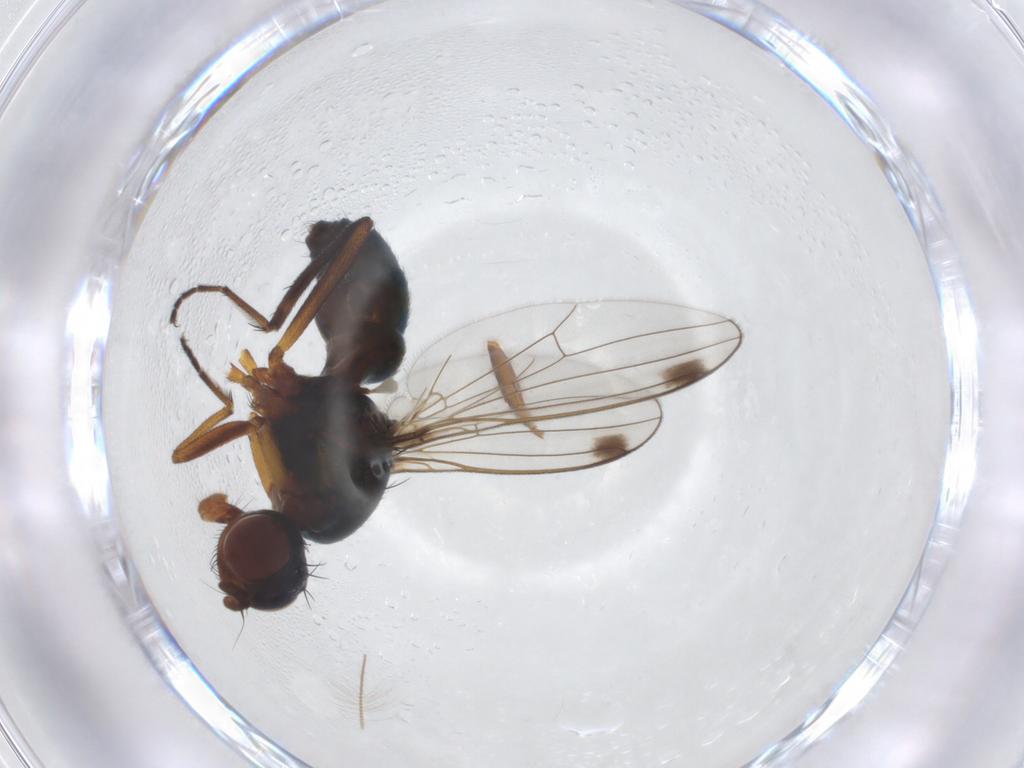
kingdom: Animalia
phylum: Arthropoda
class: Insecta
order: Diptera
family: Sepsidae
